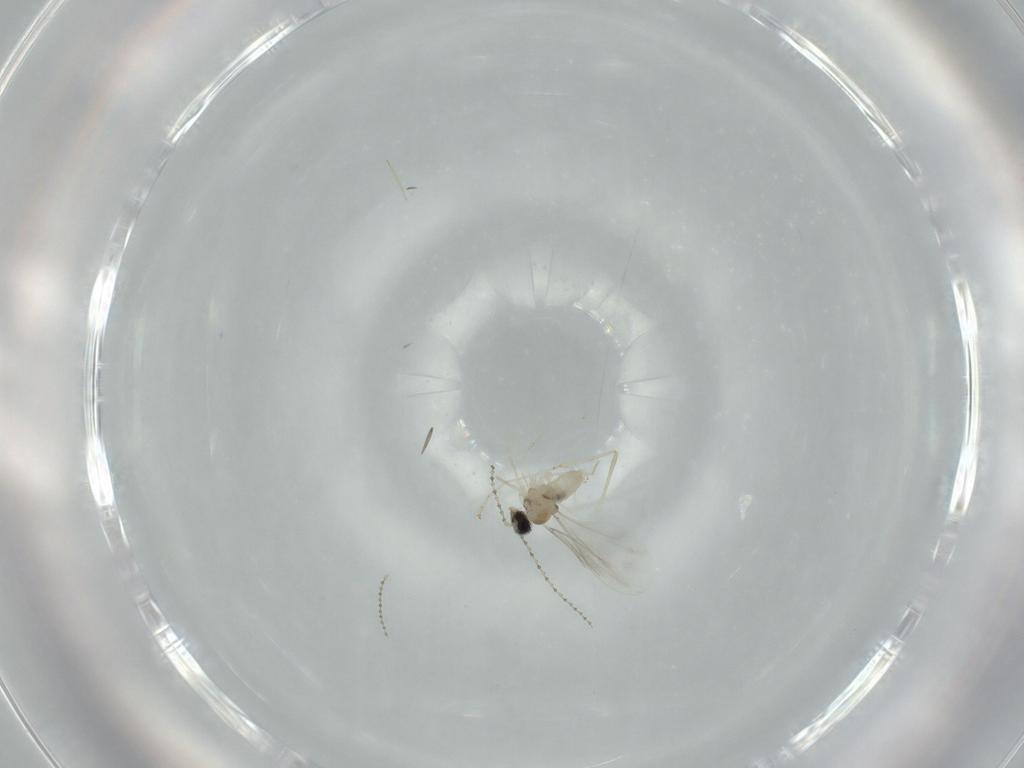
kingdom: Animalia
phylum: Arthropoda
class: Insecta
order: Diptera
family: Cecidomyiidae
